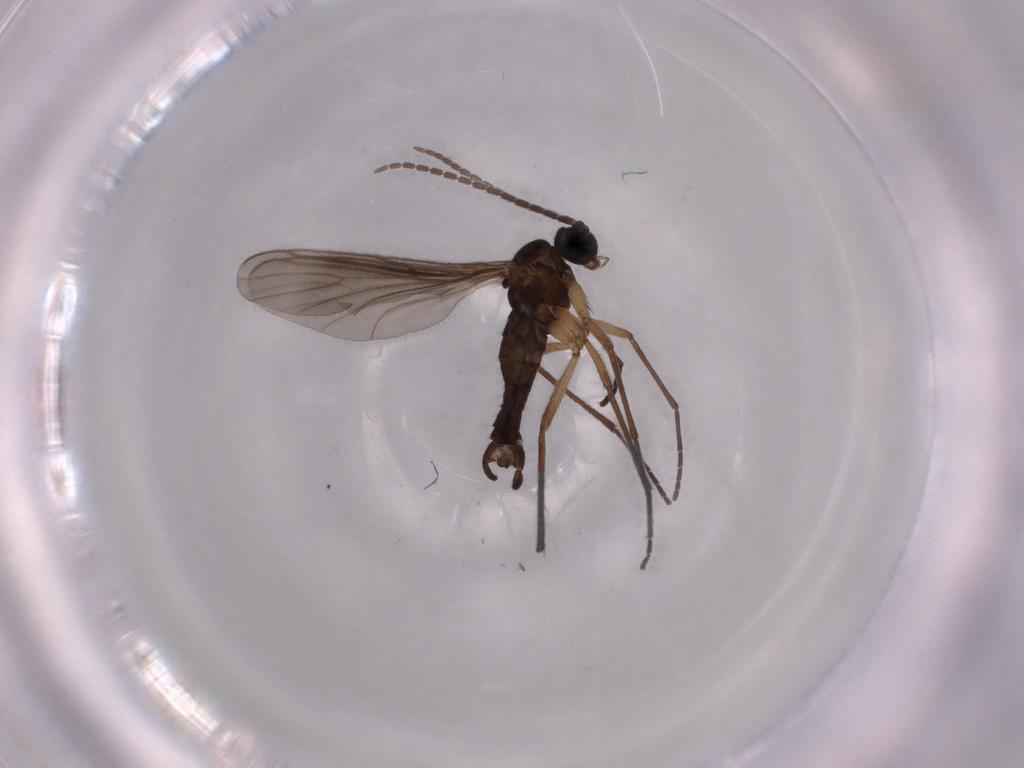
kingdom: Animalia
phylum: Arthropoda
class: Insecta
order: Diptera
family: Sciaridae
